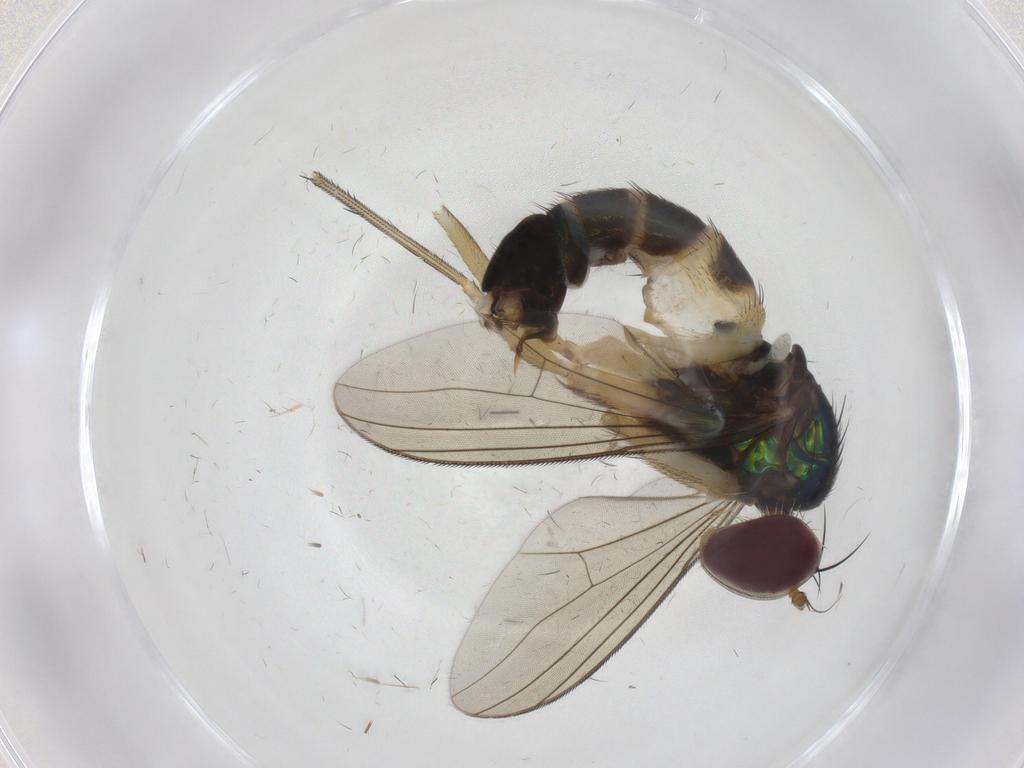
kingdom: Animalia
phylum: Arthropoda
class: Insecta
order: Diptera
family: Dolichopodidae
